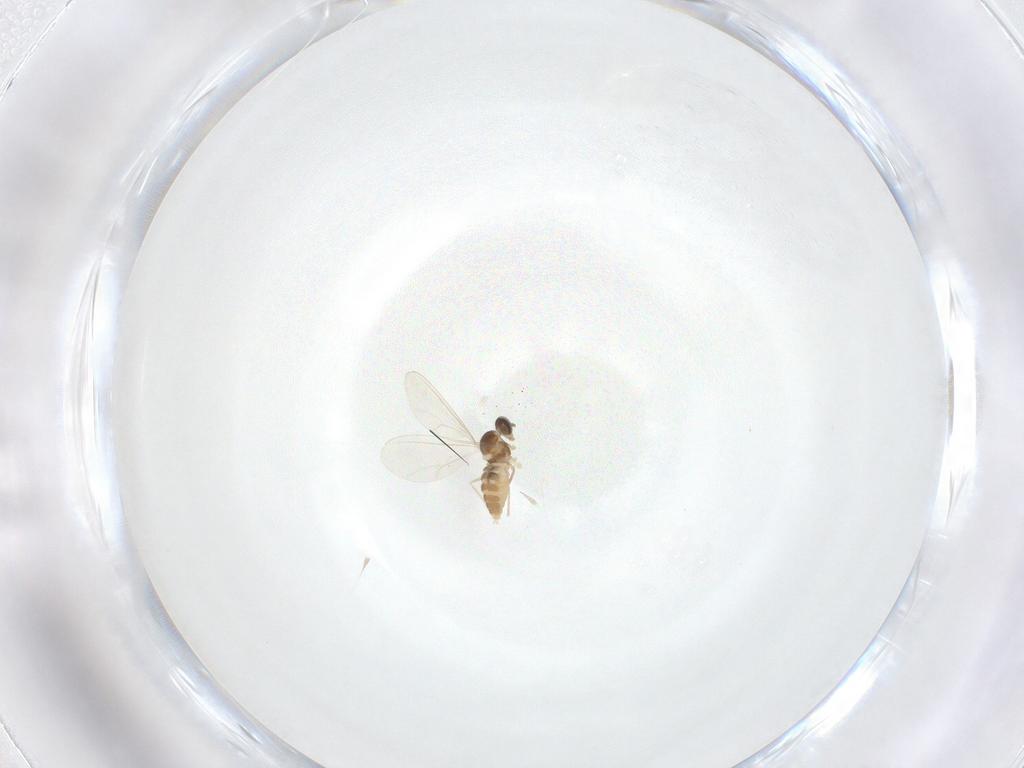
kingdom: Animalia
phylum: Arthropoda
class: Insecta
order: Diptera
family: Cecidomyiidae
